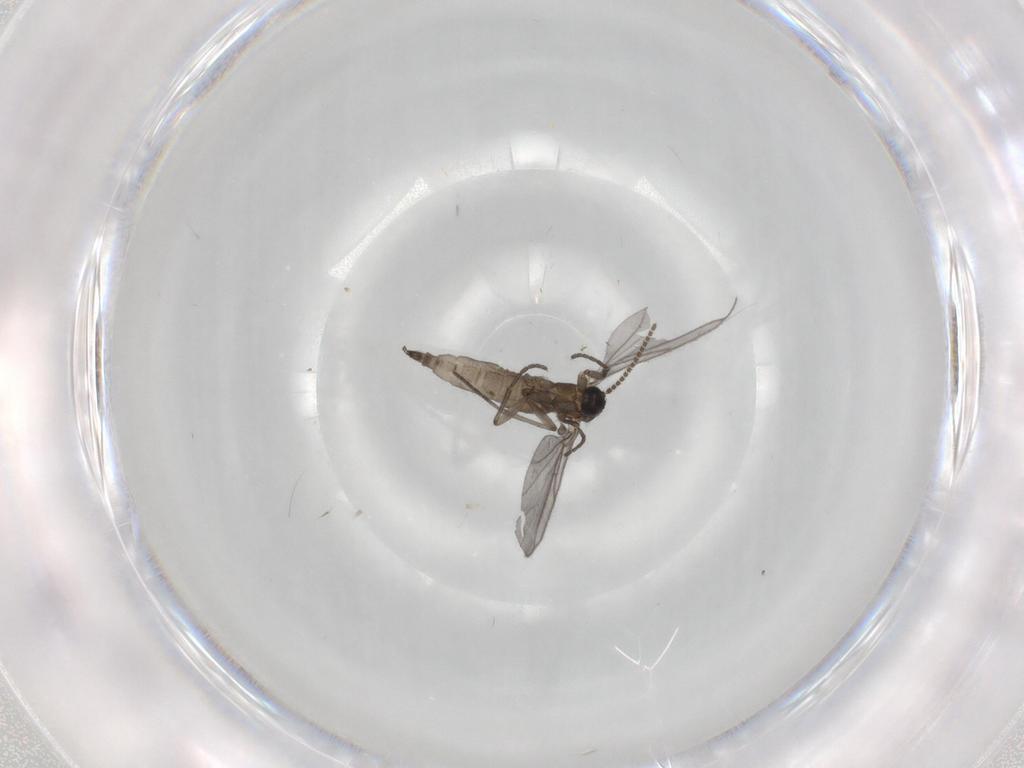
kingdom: Animalia
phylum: Arthropoda
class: Insecta
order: Diptera
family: Sciaridae
